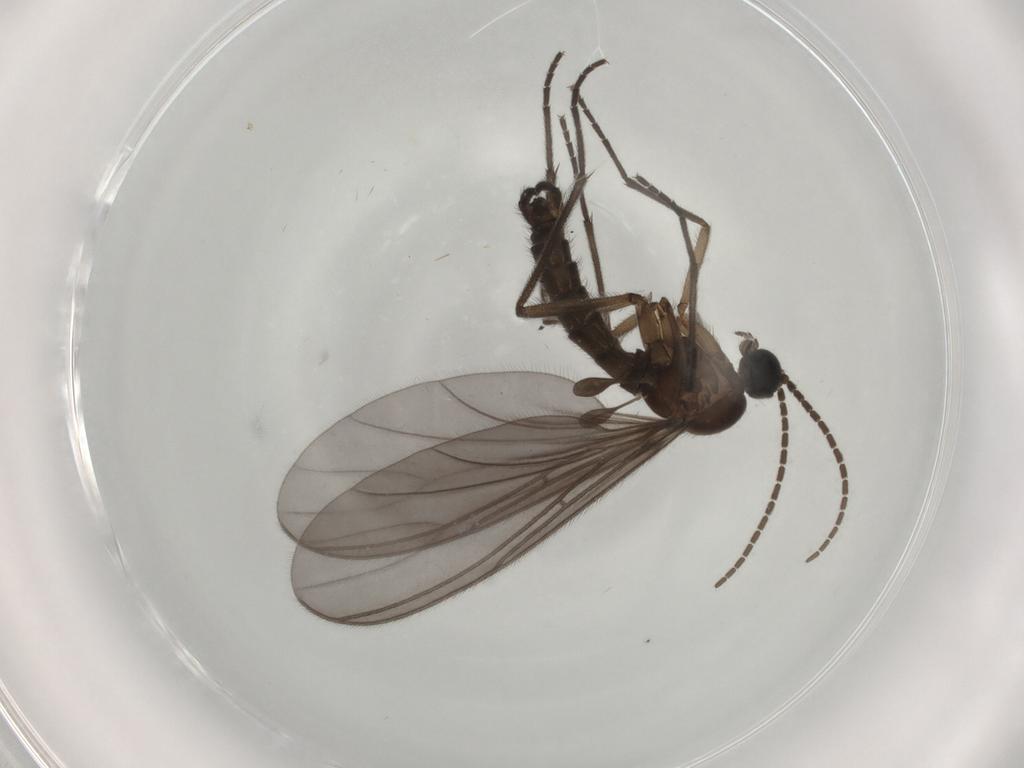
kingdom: Animalia
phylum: Arthropoda
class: Insecta
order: Diptera
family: Sciaridae
